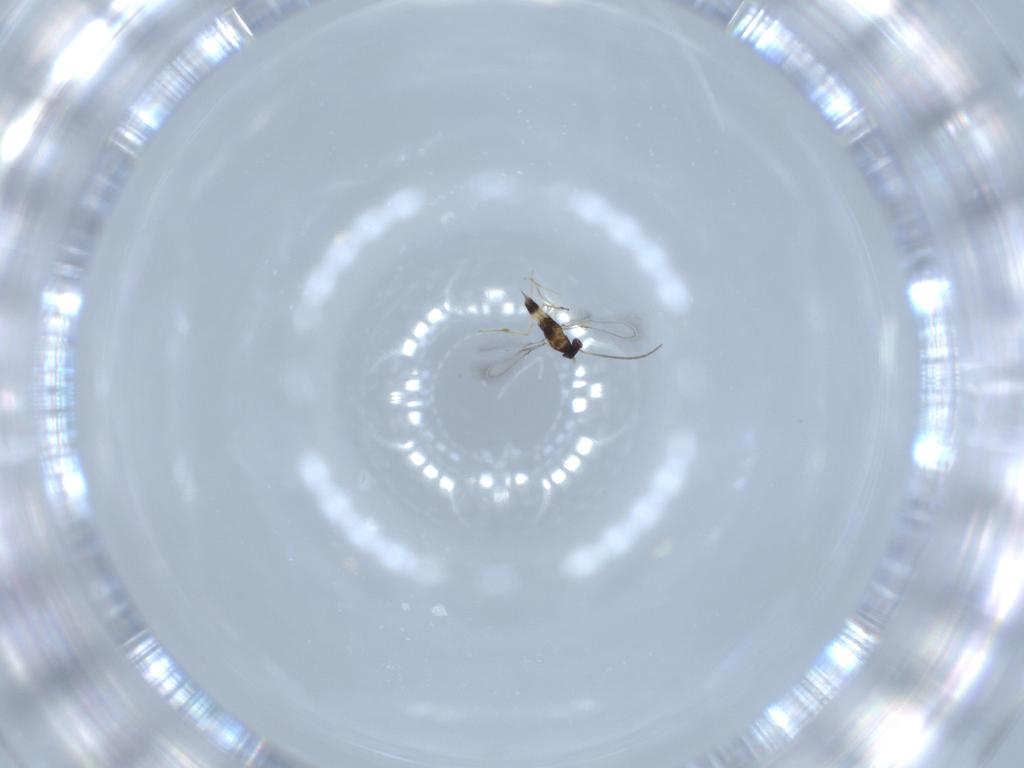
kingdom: Animalia
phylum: Arthropoda
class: Insecta
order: Hymenoptera
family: Mymaridae
